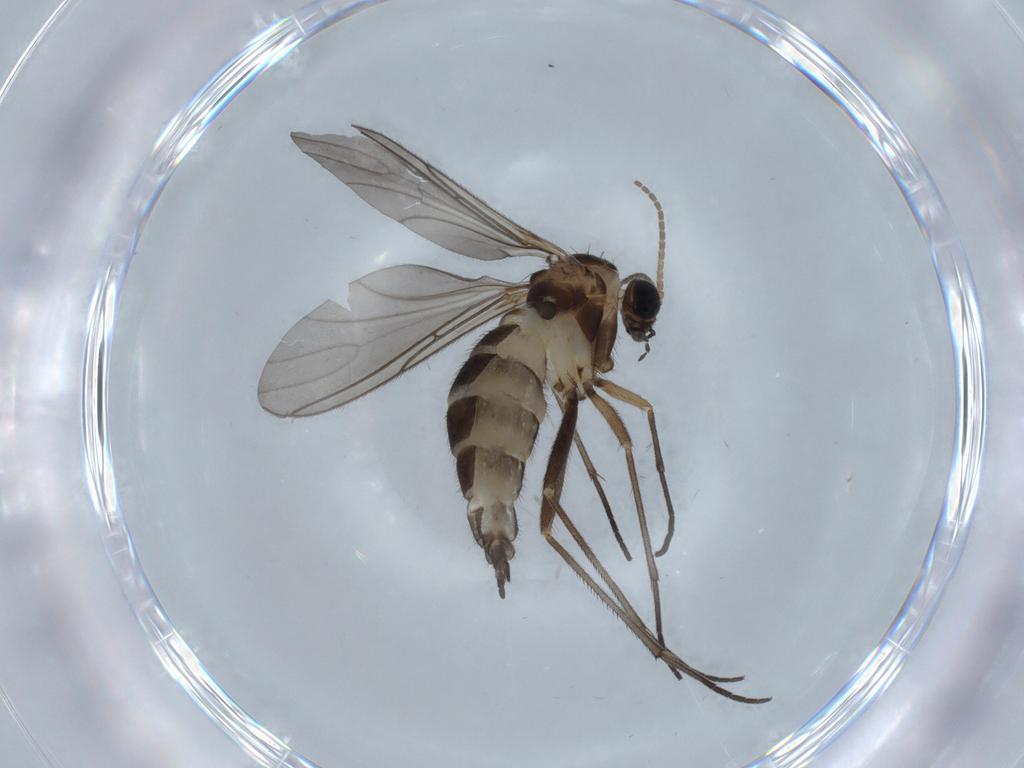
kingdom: Animalia
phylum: Arthropoda
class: Insecta
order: Diptera
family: Sciaridae
